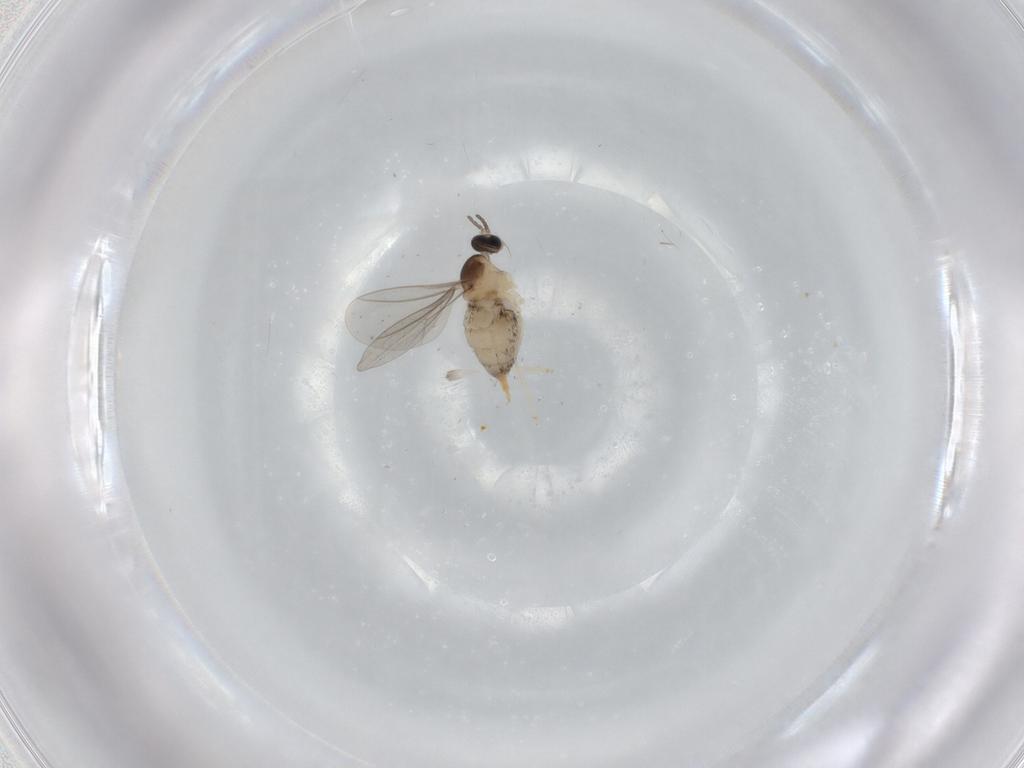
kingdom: Animalia
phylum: Arthropoda
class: Insecta
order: Diptera
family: Cecidomyiidae
